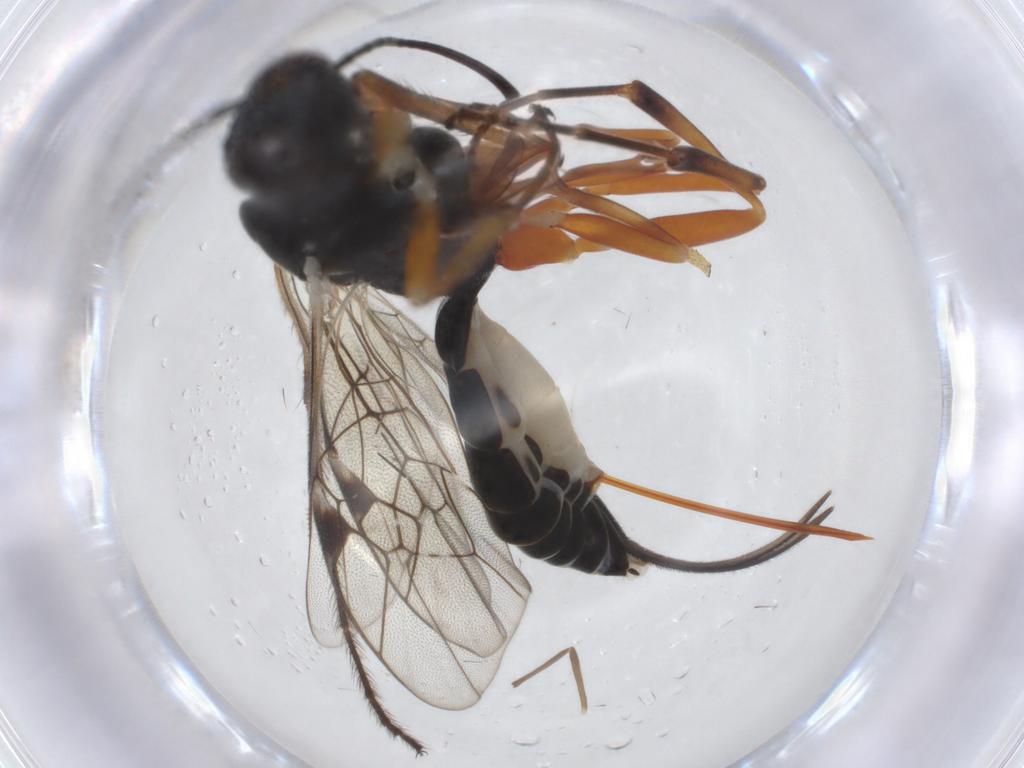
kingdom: Animalia
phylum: Arthropoda
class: Insecta
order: Hymenoptera
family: Ichneumonidae
